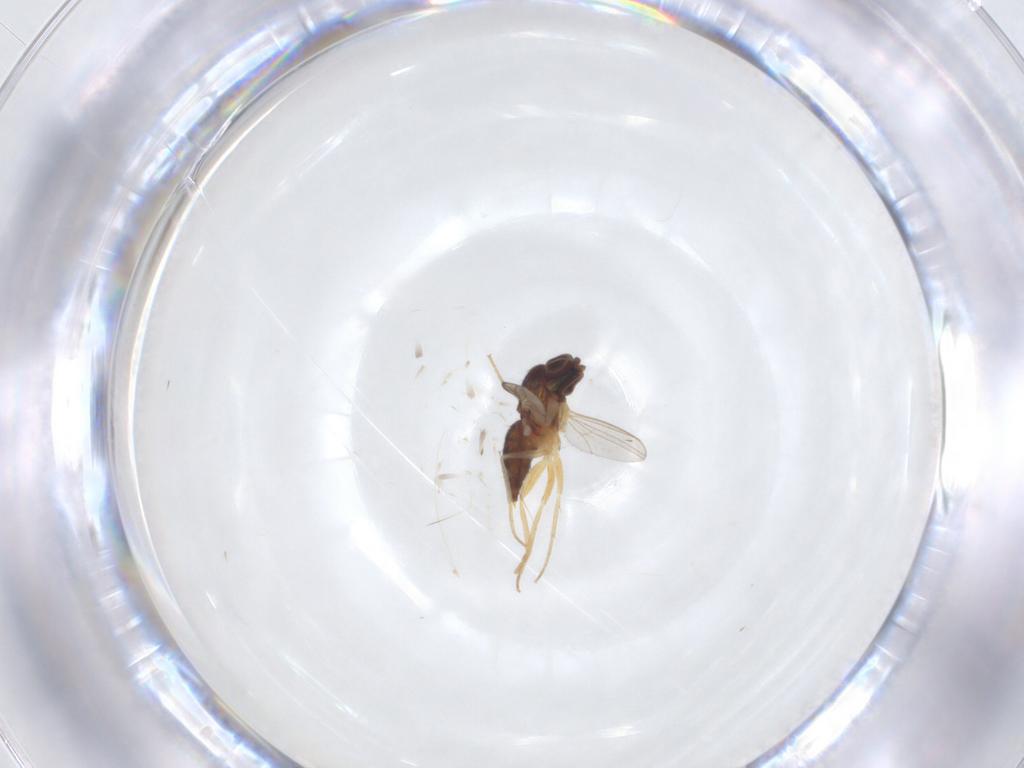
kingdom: Animalia
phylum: Arthropoda
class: Insecta
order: Diptera
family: Dolichopodidae
